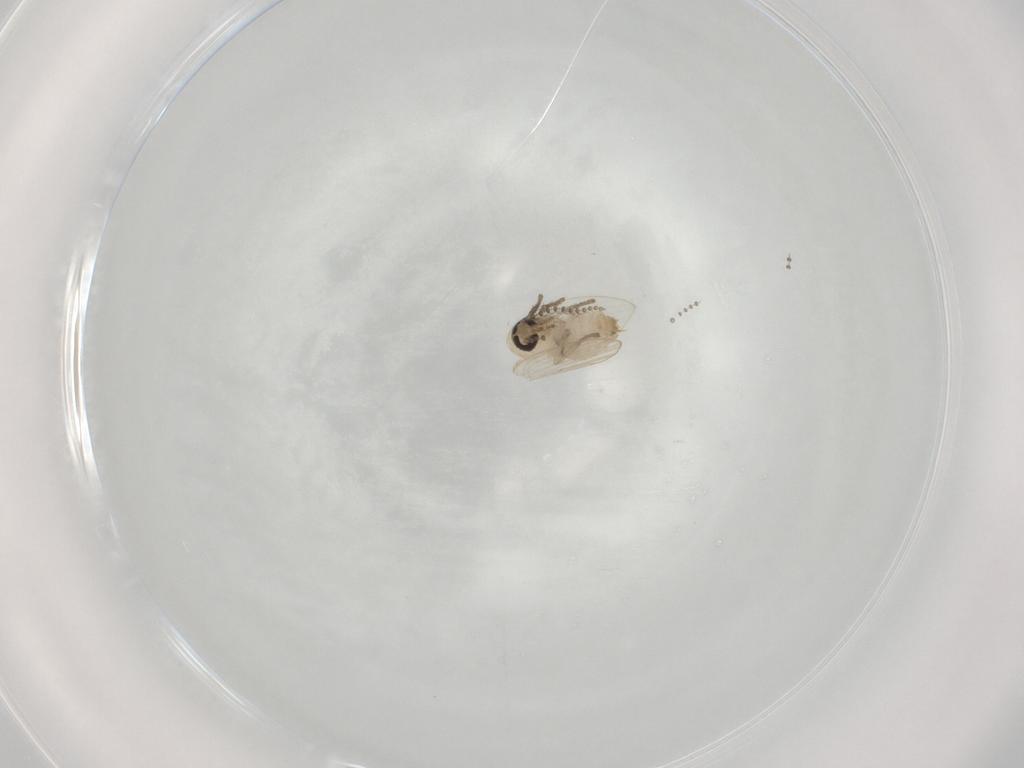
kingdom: Animalia
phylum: Arthropoda
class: Insecta
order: Diptera
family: Psychodidae
